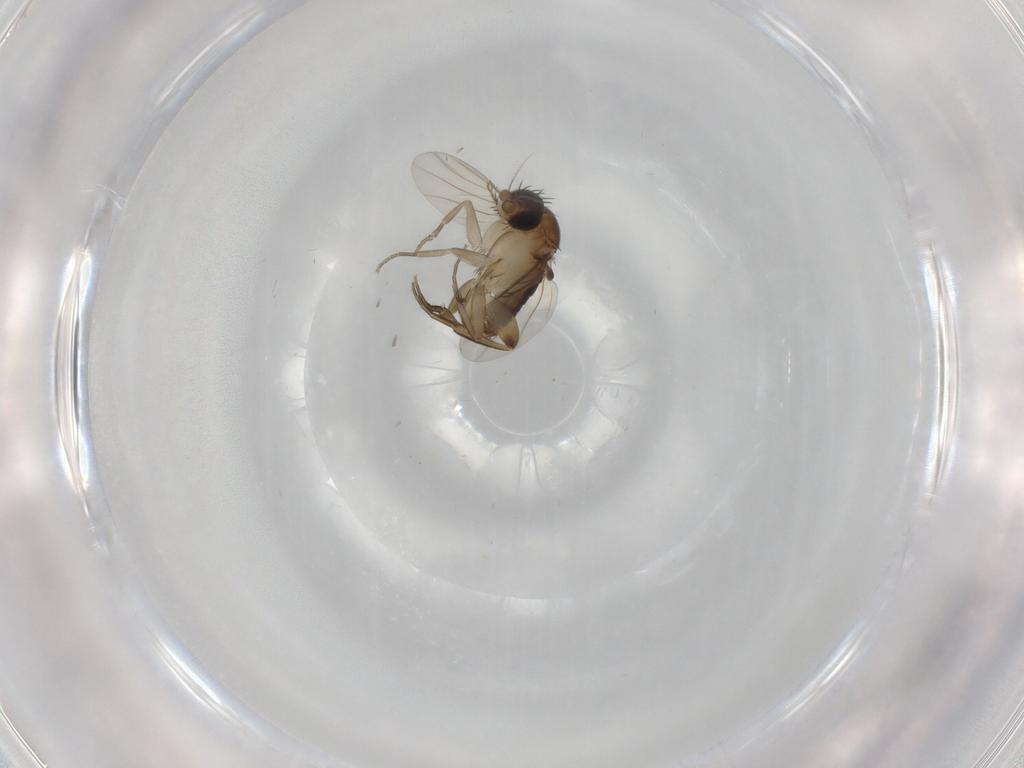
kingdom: Animalia
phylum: Arthropoda
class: Insecta
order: Diptera
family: Phoridae
